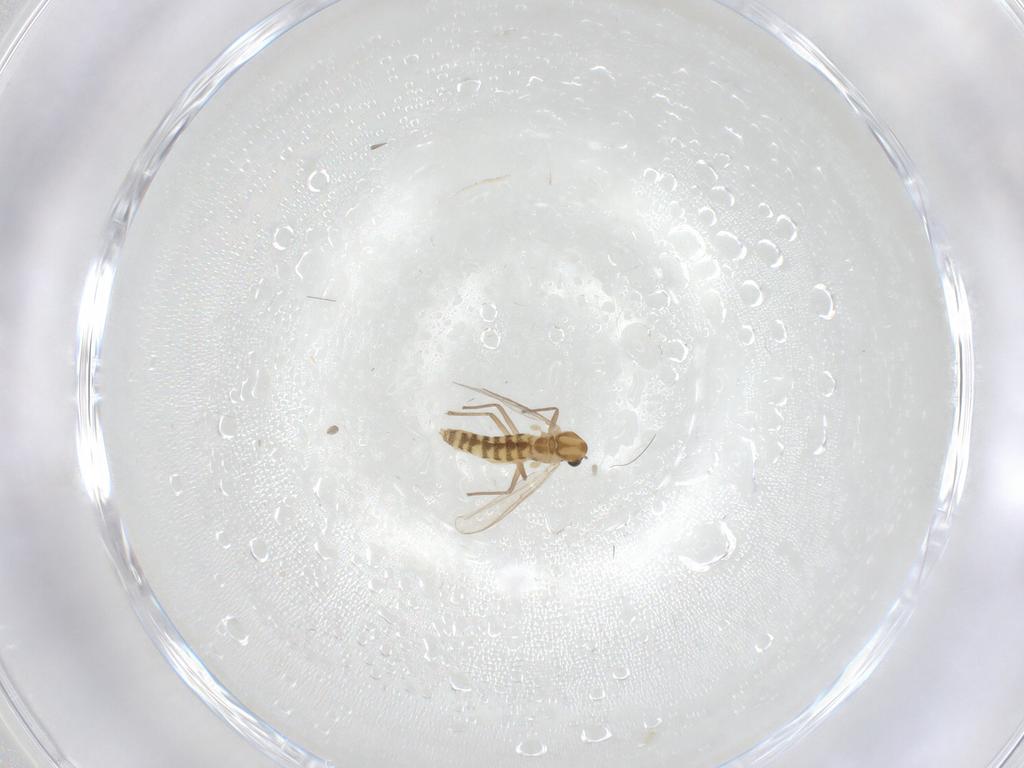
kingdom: Animalia
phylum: Arthropoda
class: Insecta
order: Diptera
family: Chironomidae
